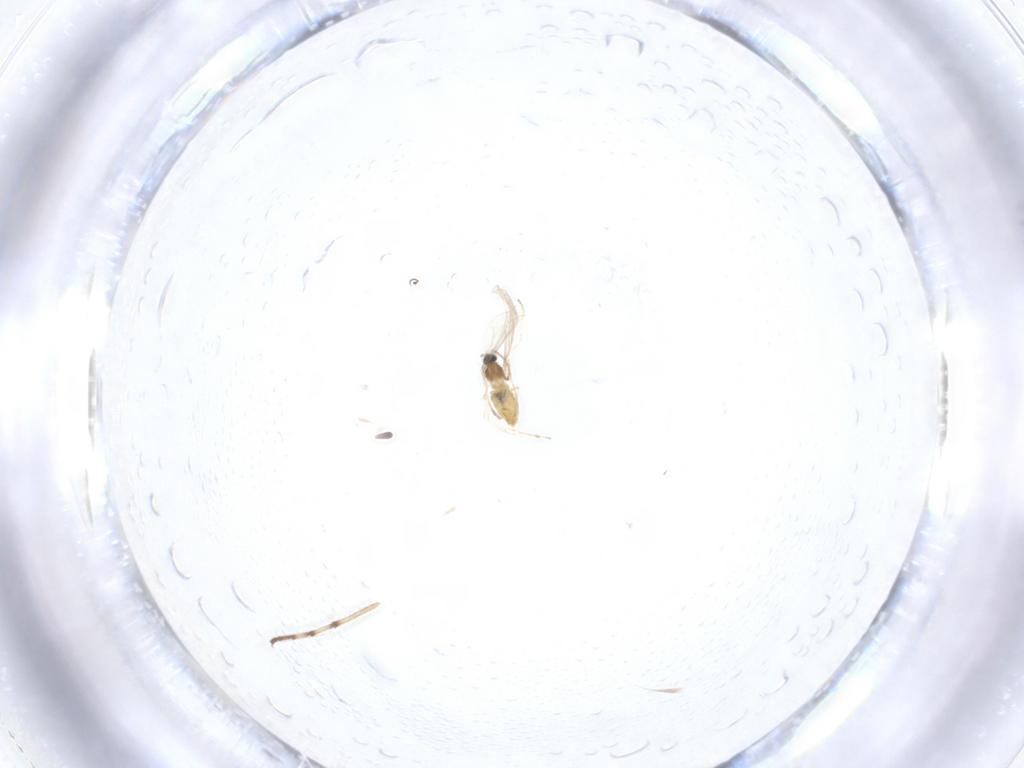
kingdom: Animalia
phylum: Arthropoda
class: Insecta
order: Diptera
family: Cecidomyiidae
